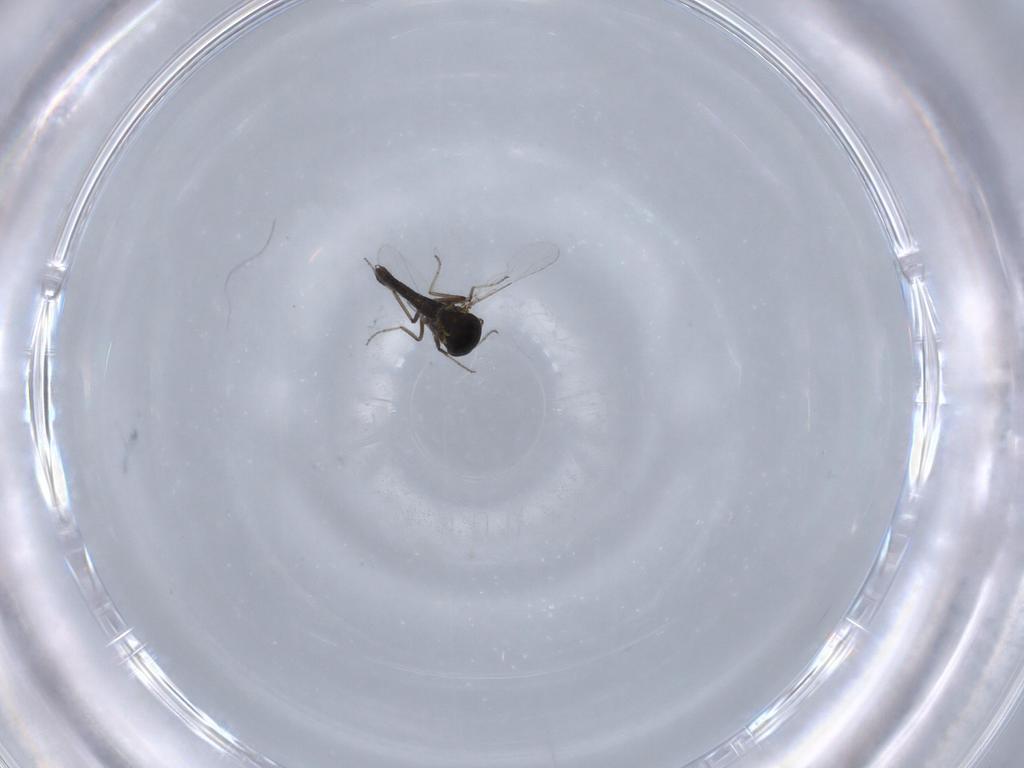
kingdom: Animalia
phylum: Arthropoda
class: Insecta
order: Diptera
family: Ceratopogonidae
